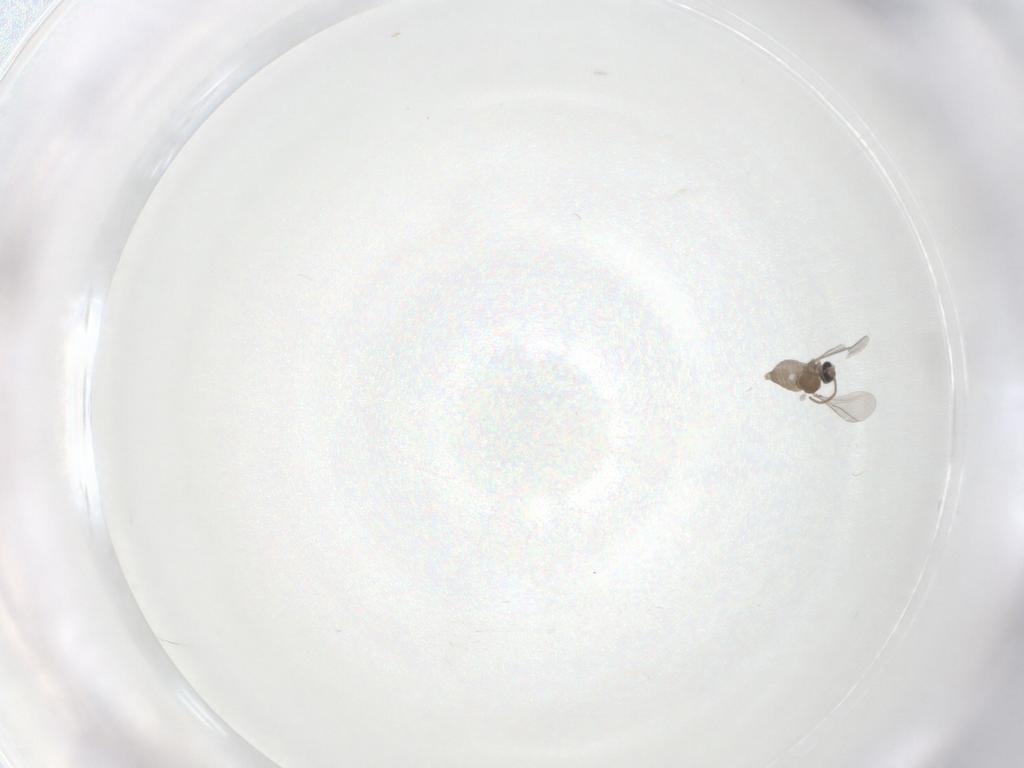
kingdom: Animalia
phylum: Arthropoda
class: Insecta
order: Diptera
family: Cecidomyiidae
